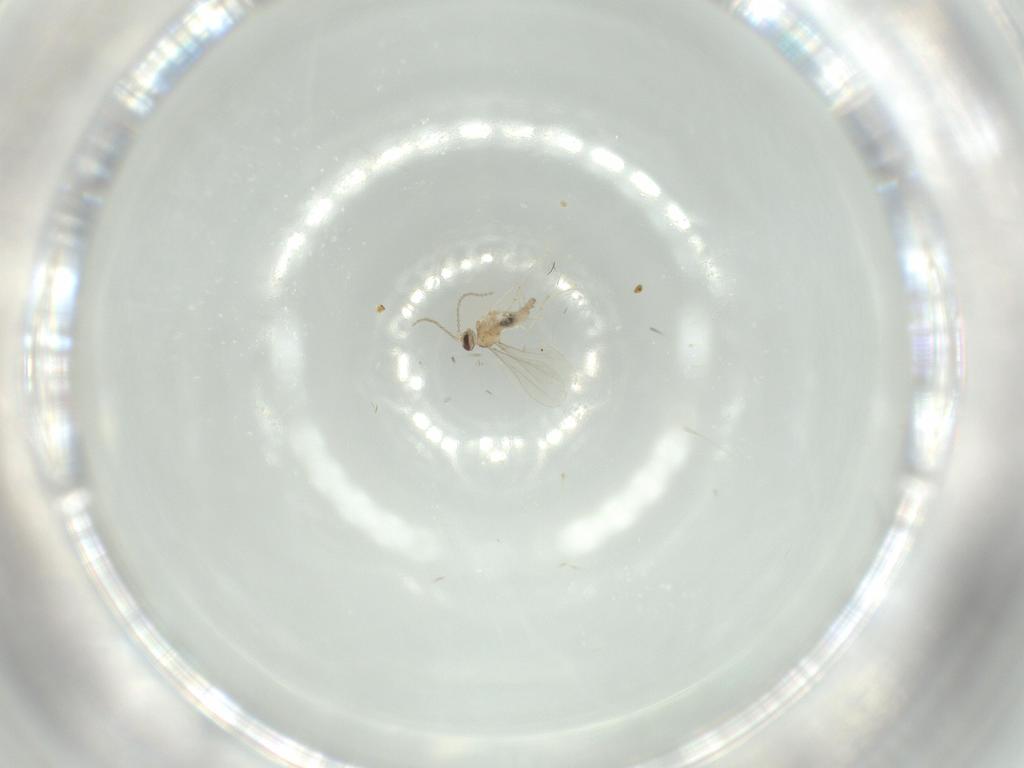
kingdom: Animalia
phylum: Arthropoda
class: Insecta
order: Diptera
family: Cecidomyiidae
